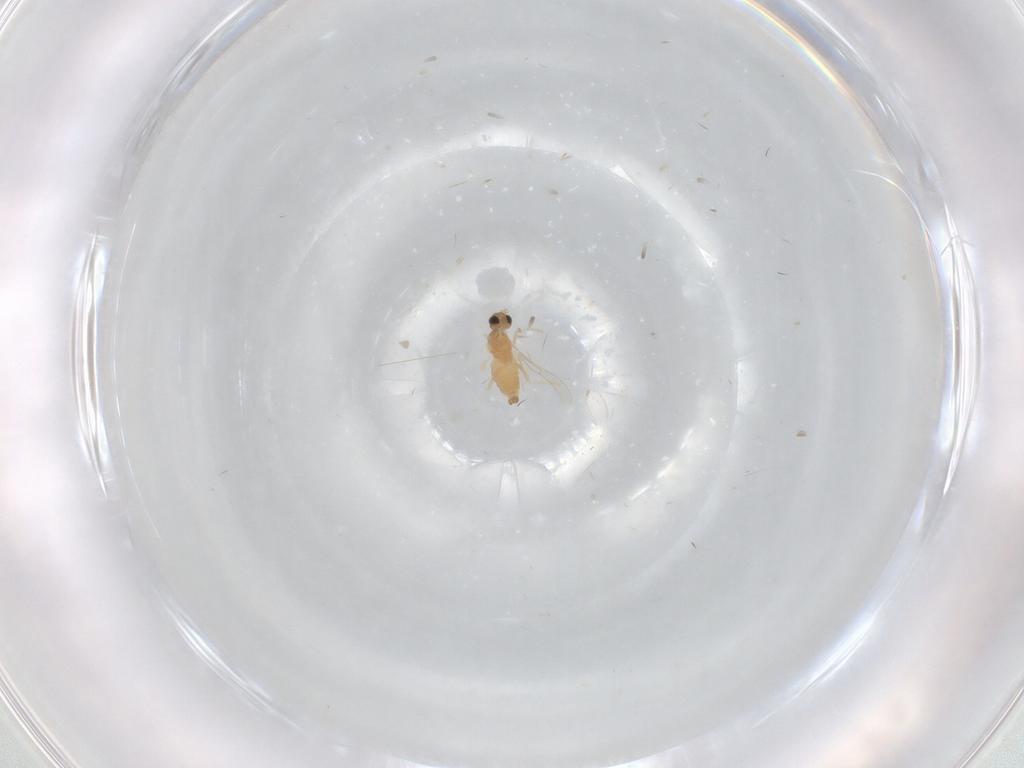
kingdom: Animalia
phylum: Arthropoda
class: Insecta
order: Diptera
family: Cecidomyiidae
